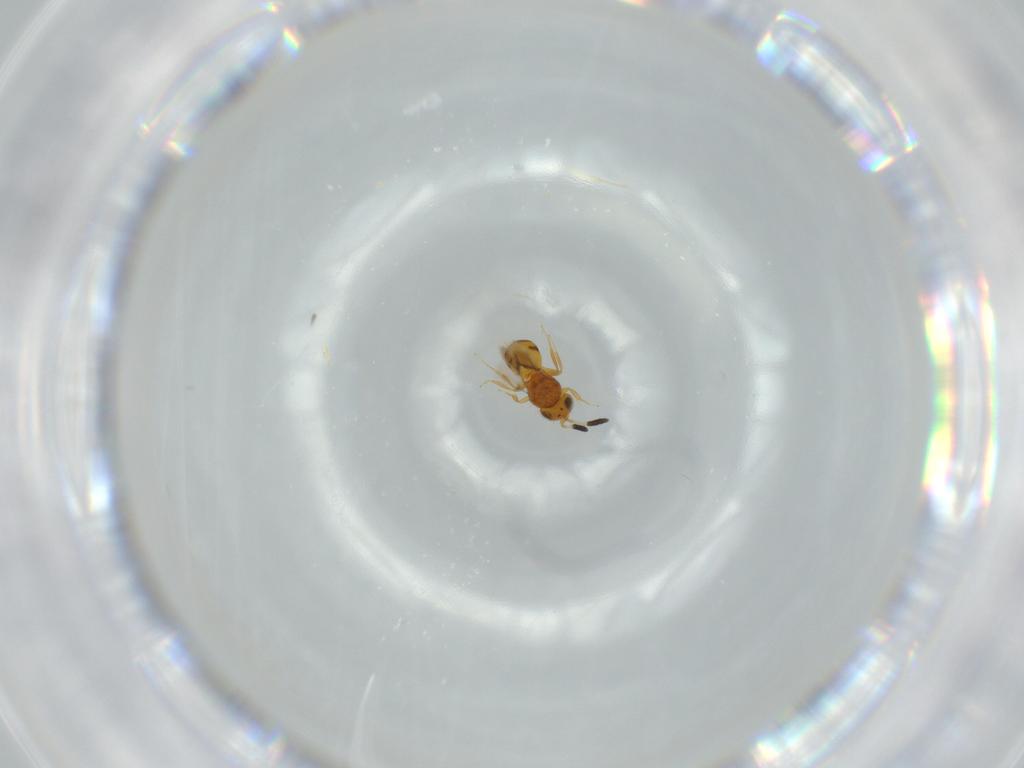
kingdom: Animalia
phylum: Arthropoda
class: Insecta
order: Hymenoptera
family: Scelionidae
